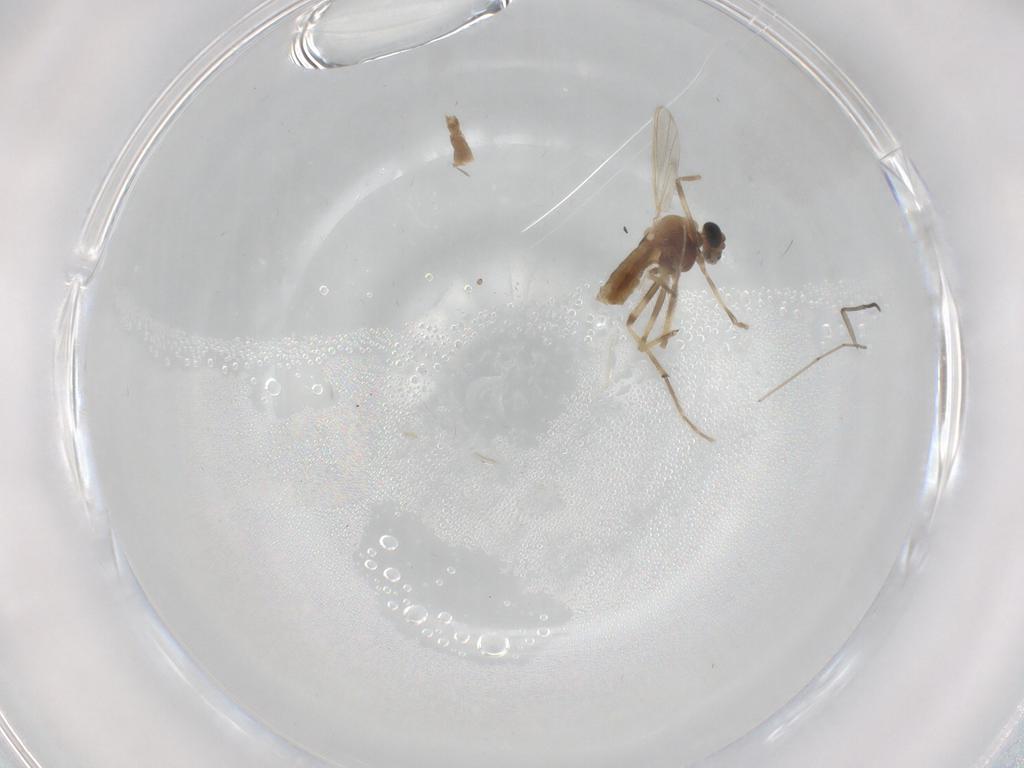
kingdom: Animalia
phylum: Arthropoda
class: Insecta
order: Diptera
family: Chironomidae
